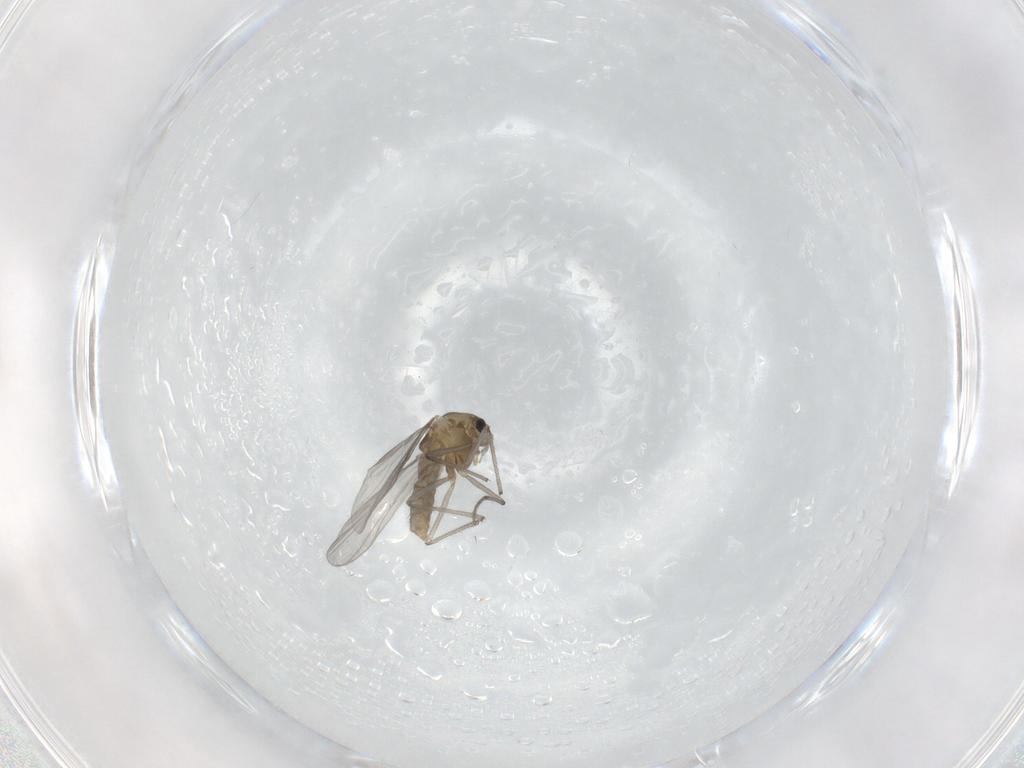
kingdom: Animalia
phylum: Arthropoda
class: Insecta
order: Diptera
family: Chironomidae
